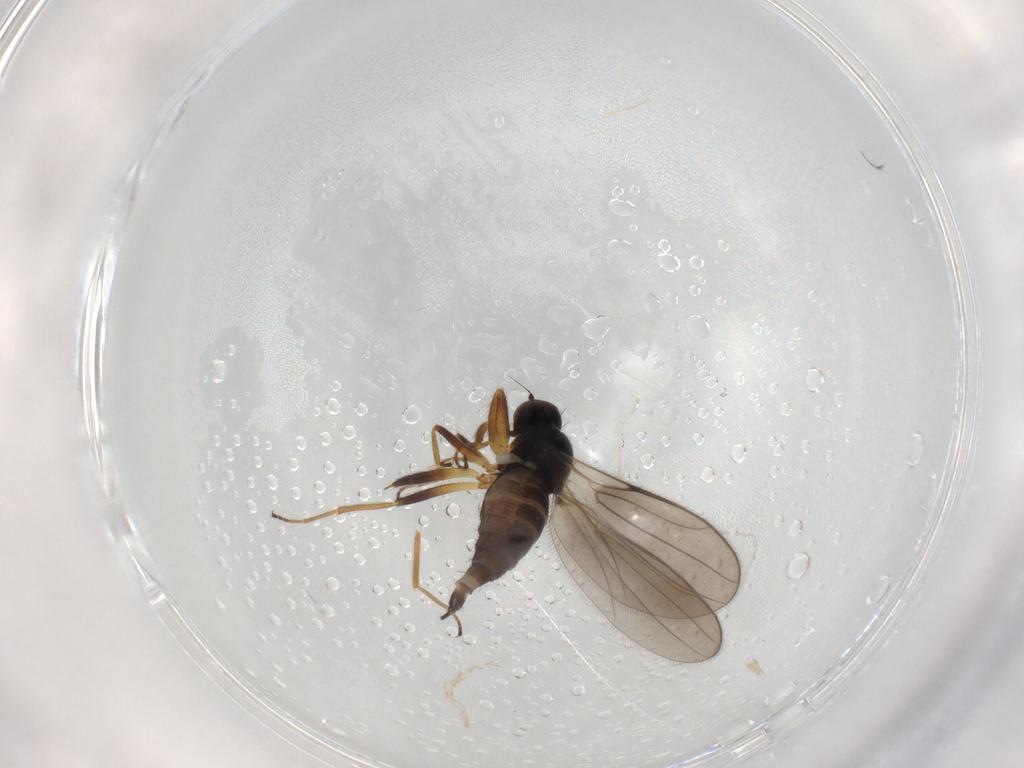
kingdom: Animalia
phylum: Arthropoda
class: Insecta
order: Diptera
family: Hybotidae
